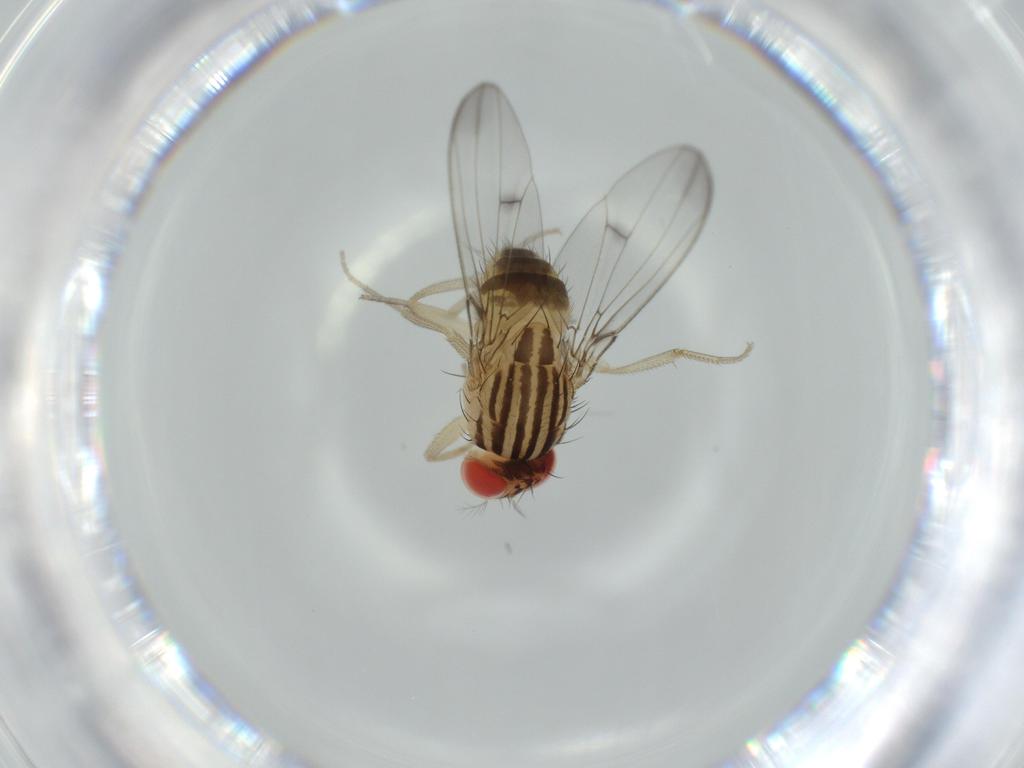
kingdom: Animalia
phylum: Arthropoda
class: Insecta
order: Diptera
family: Drosophilidae
